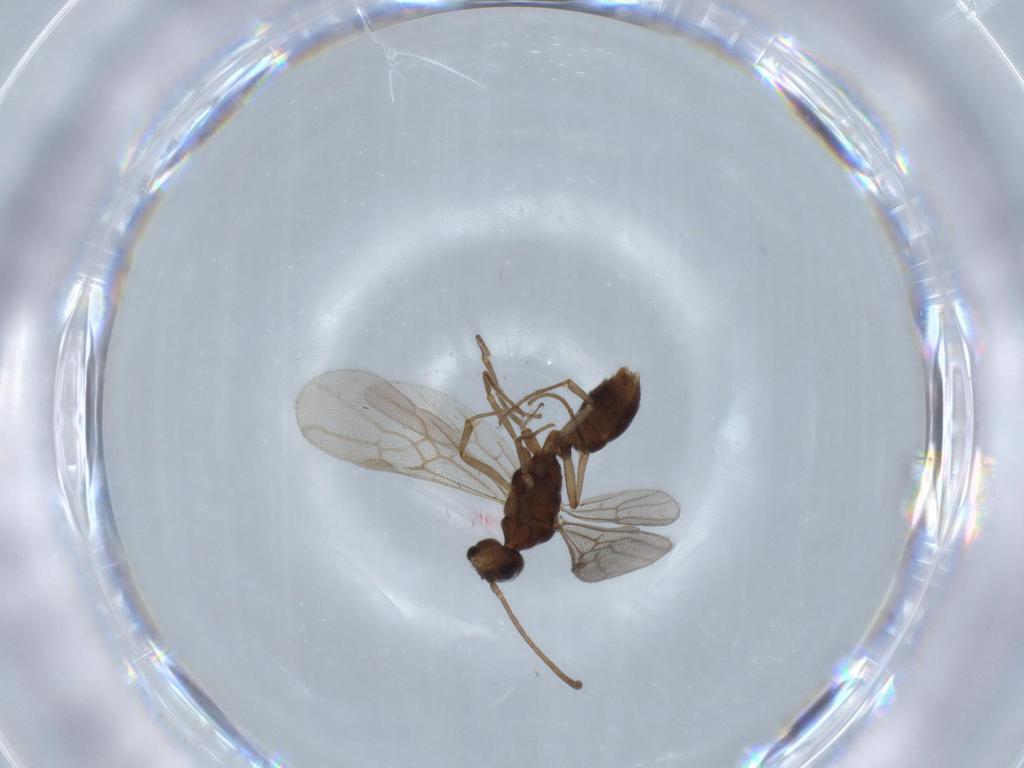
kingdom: Animalia
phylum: Arthropoda
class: Insecta
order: Hymenoptera
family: Formicidae
